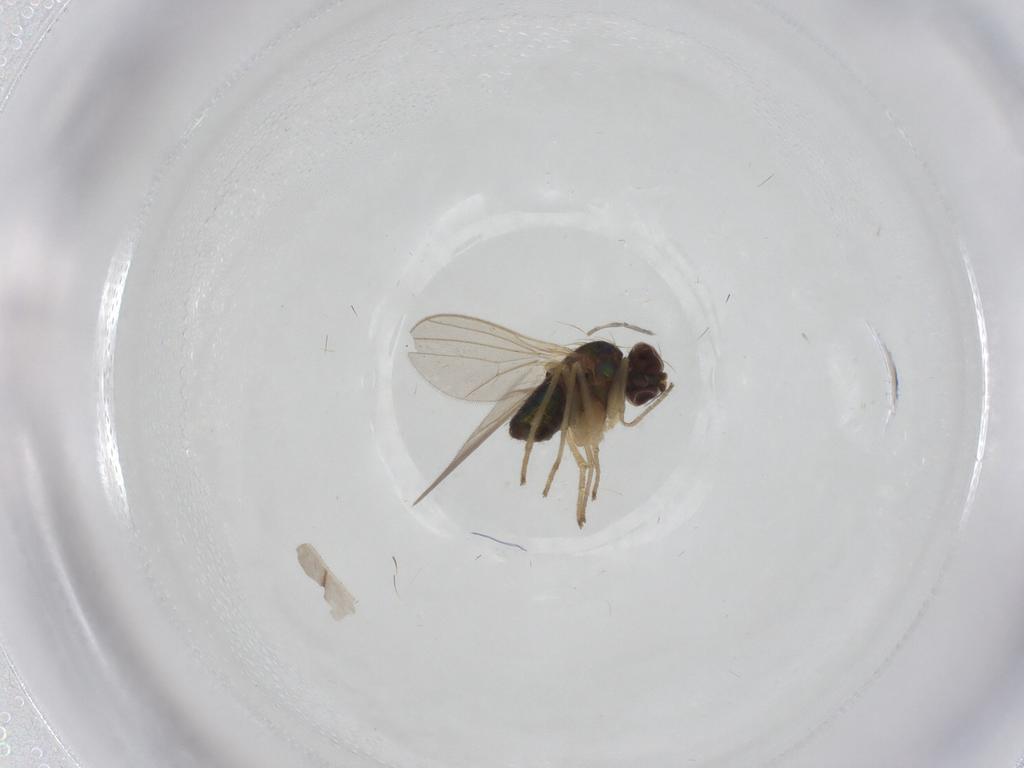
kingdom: Animalia
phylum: Arthropoda
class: Insecta
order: Diptera
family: Dolichopodidae
